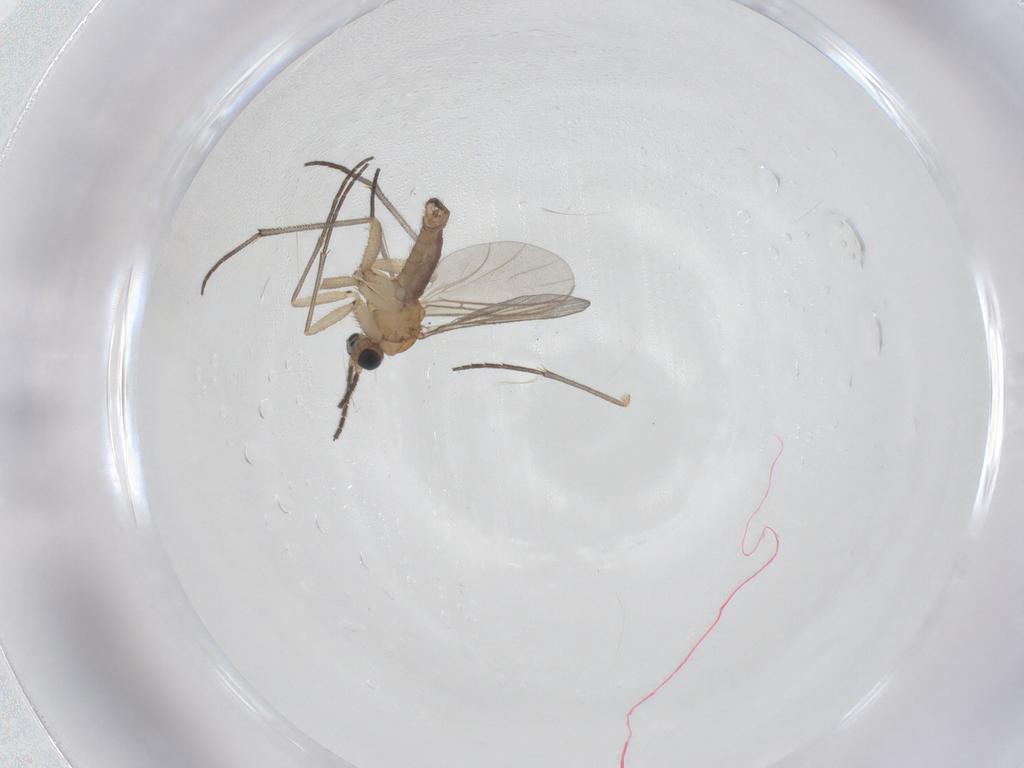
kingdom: Animalia
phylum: Arthropoda
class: Insecta
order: Diptera
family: Sciaridae
